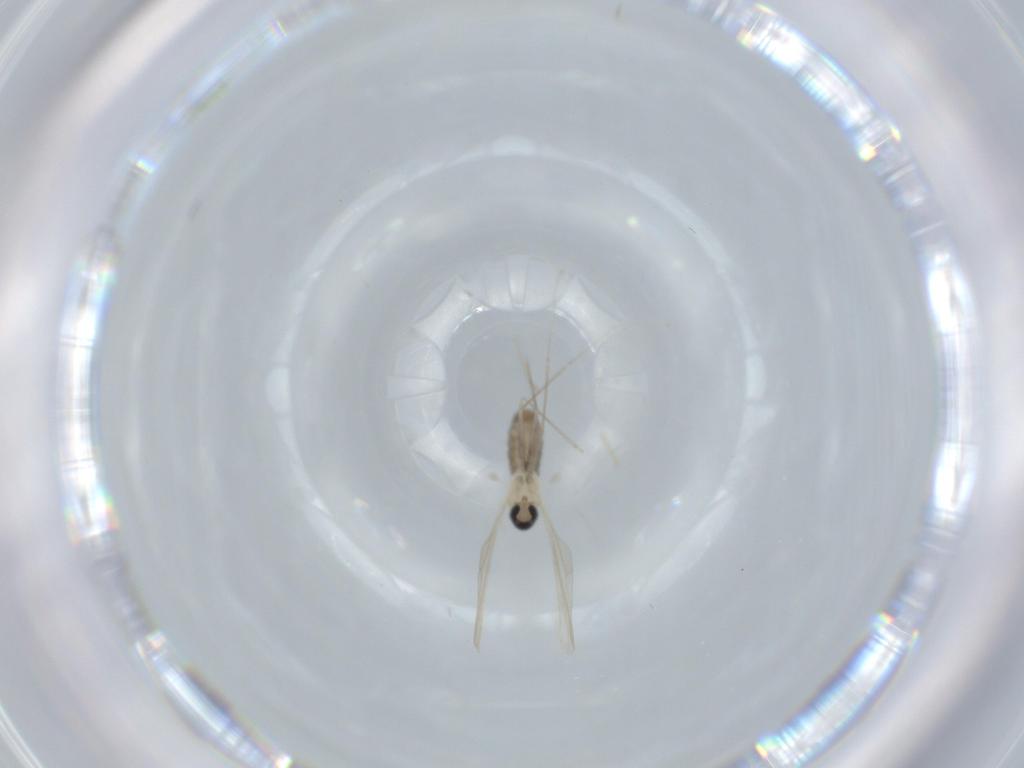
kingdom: Animalia
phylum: Arthropoda
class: Insecta
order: Diptera
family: Cecidomyiidae
